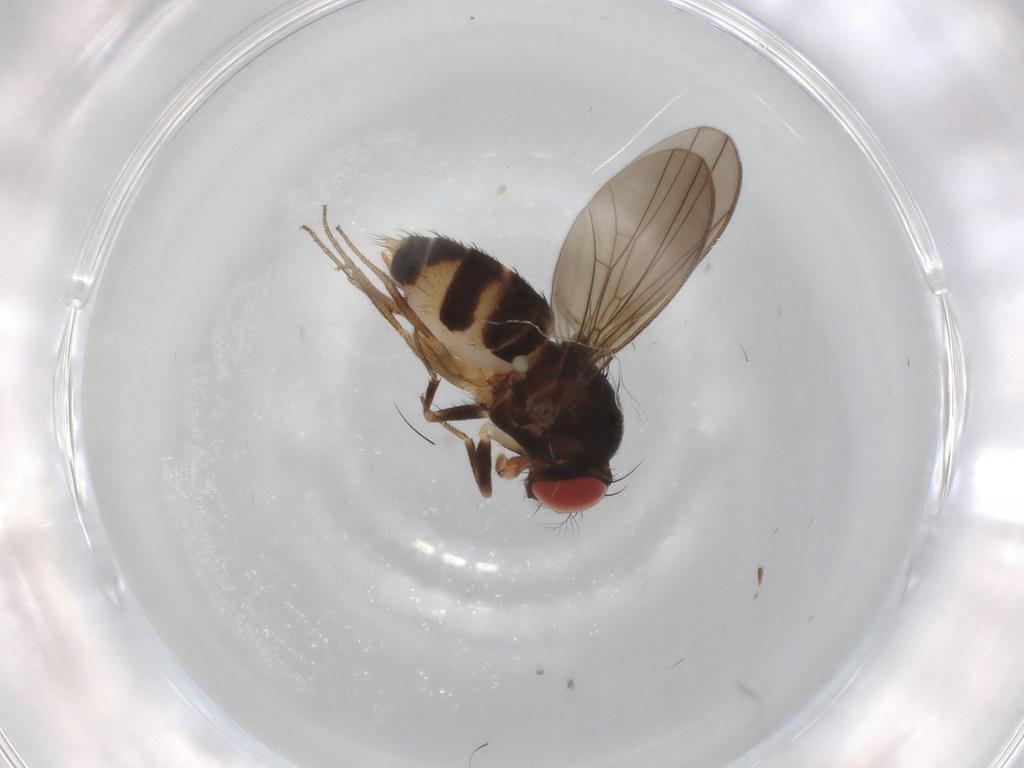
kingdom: Animalia
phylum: Arthropoda
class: Insecta
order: Diptera
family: Drosophilidae
